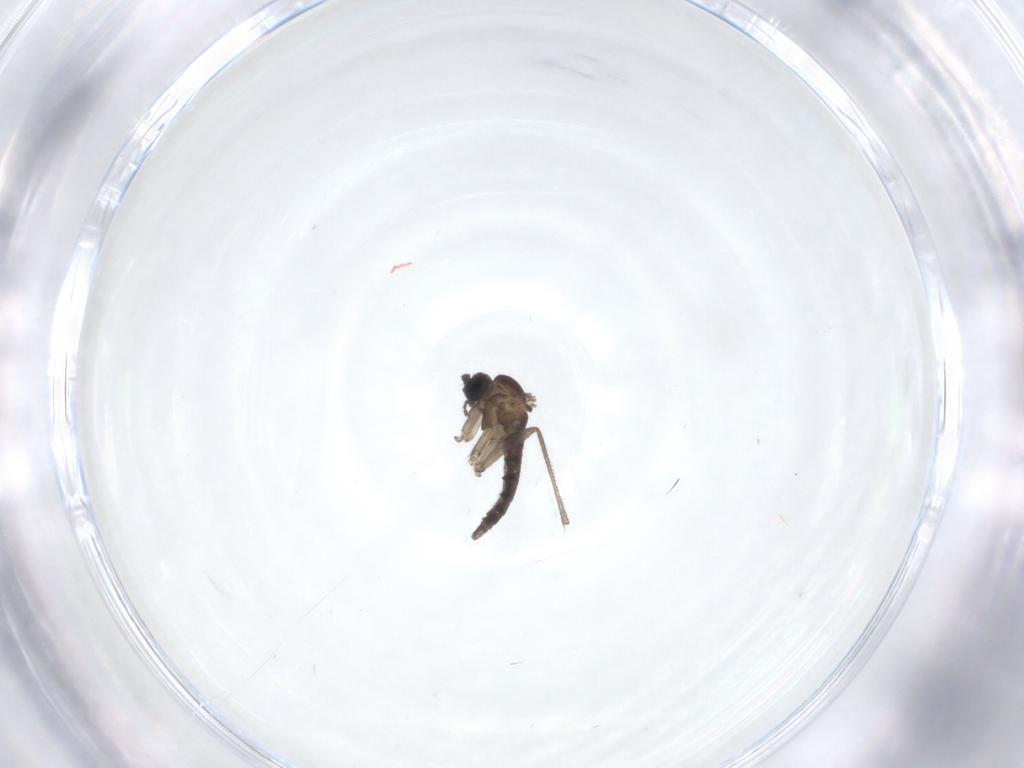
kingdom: Animalia
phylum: Arthropoda
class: Insecta
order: Diptera
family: Sciaridae
